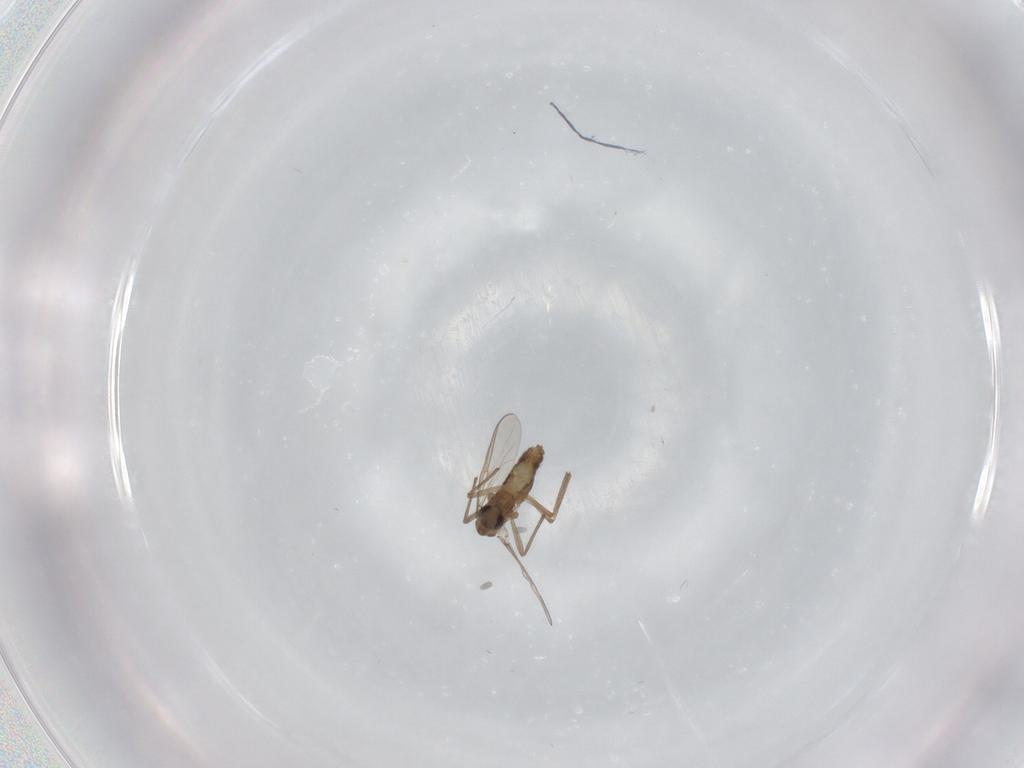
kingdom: Animalia
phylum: Arthropoda
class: Insecta
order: Diptera
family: Chironomidae
